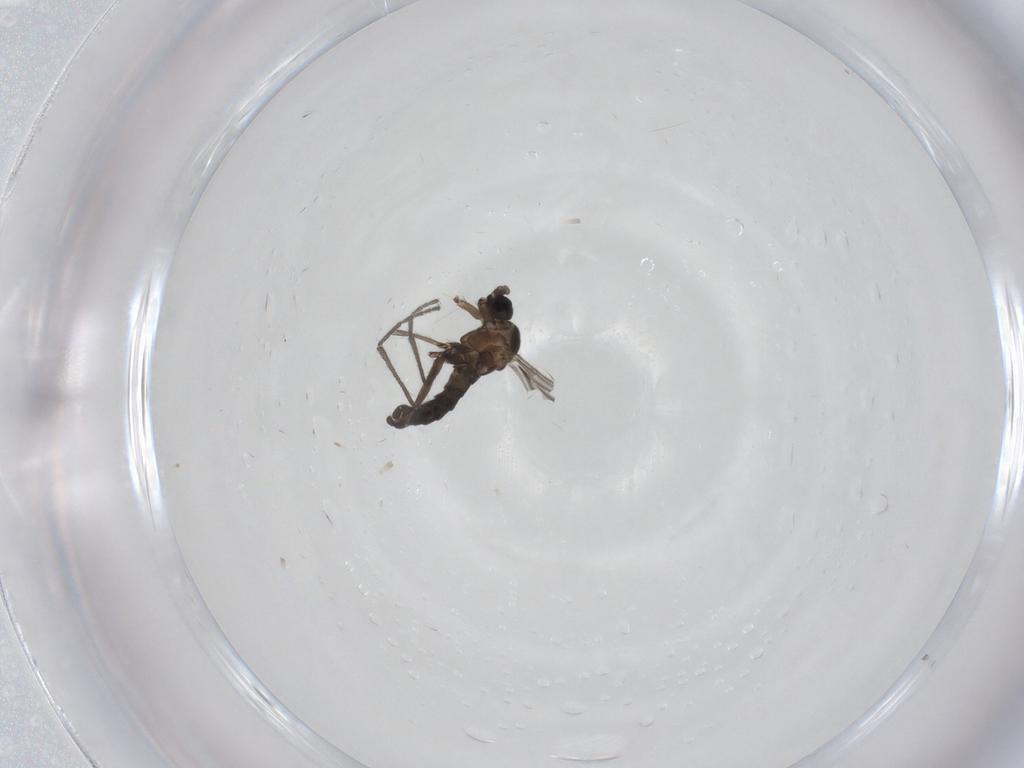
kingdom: Animalia
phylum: Arthropoda
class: Insecta
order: Diptera
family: Sciaridae
